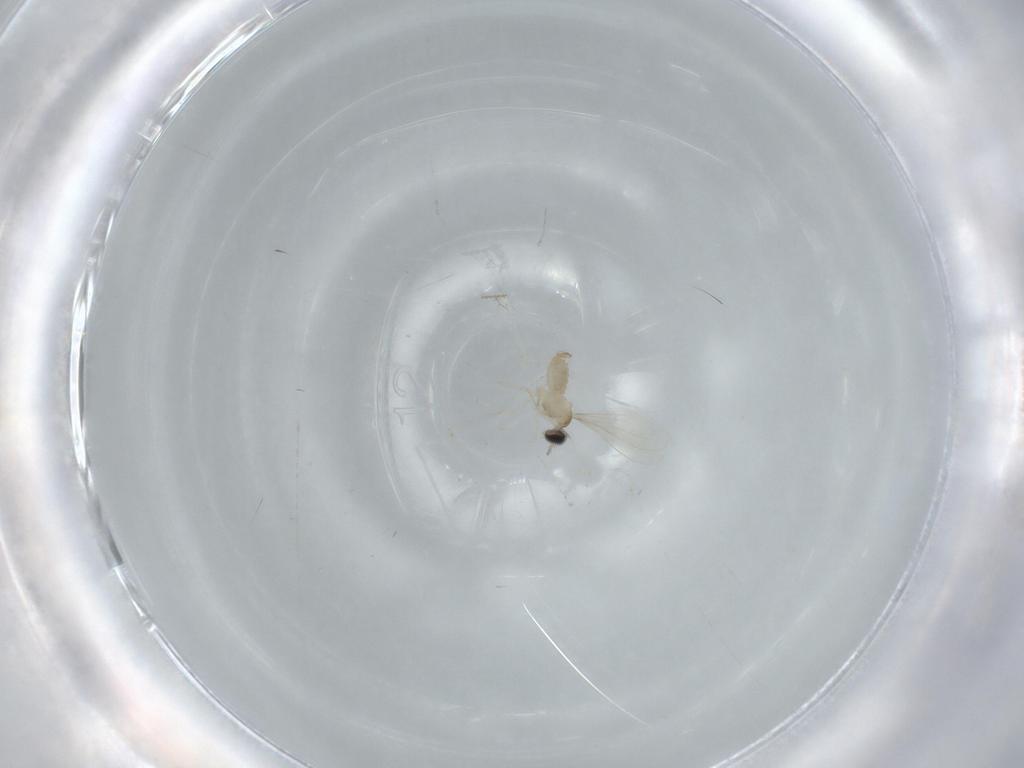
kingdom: Animalia
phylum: Arthropoda
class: Insecta
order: Diptera
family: Cecidomyiidae
